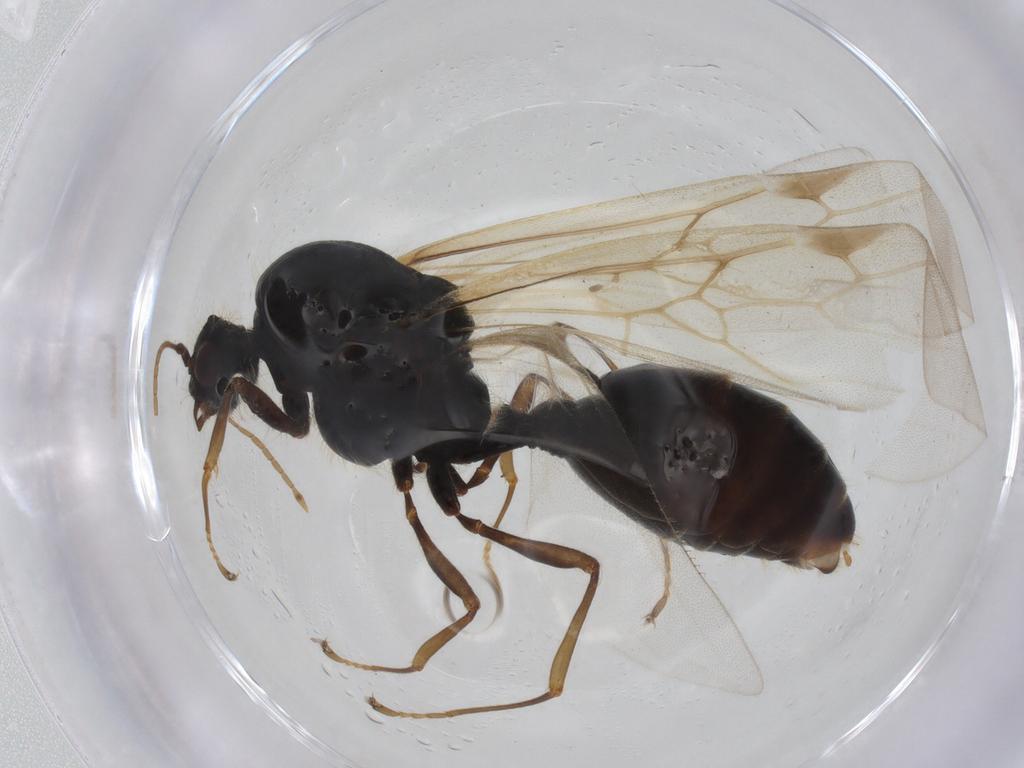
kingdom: Animalia
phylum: Arthropoda
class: Insecta
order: Hymenoptera
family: Formicidae
